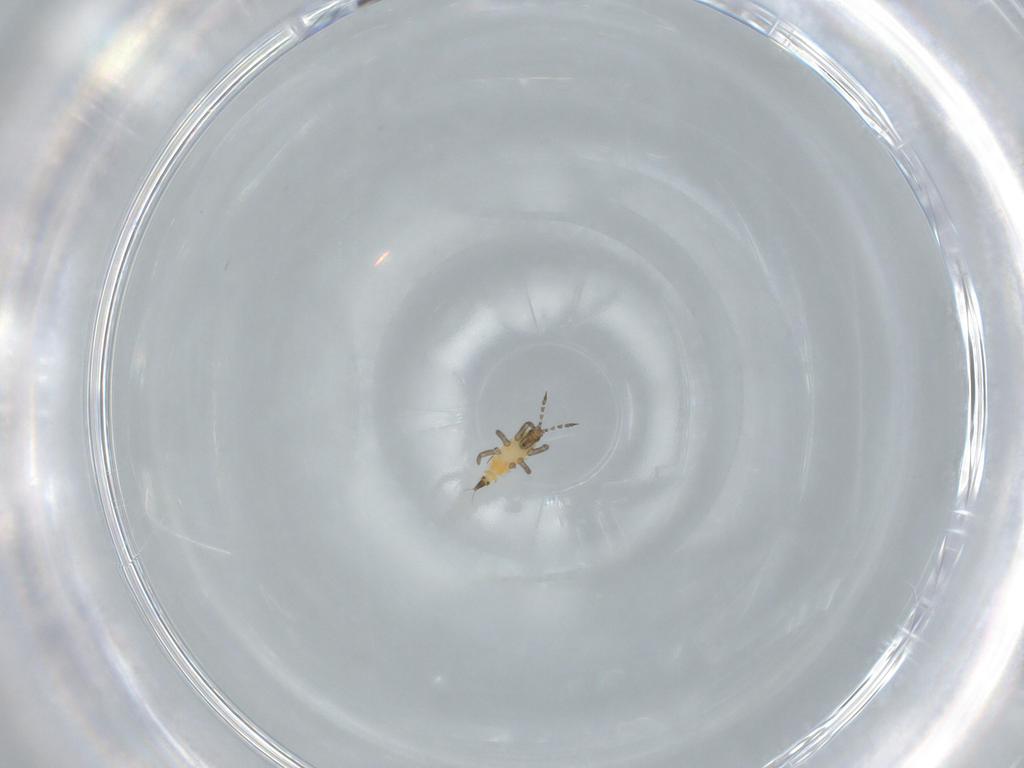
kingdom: Animalia
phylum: Arthropoda
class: Insecta
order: Thysanoptera
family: Phlaeothripidae
